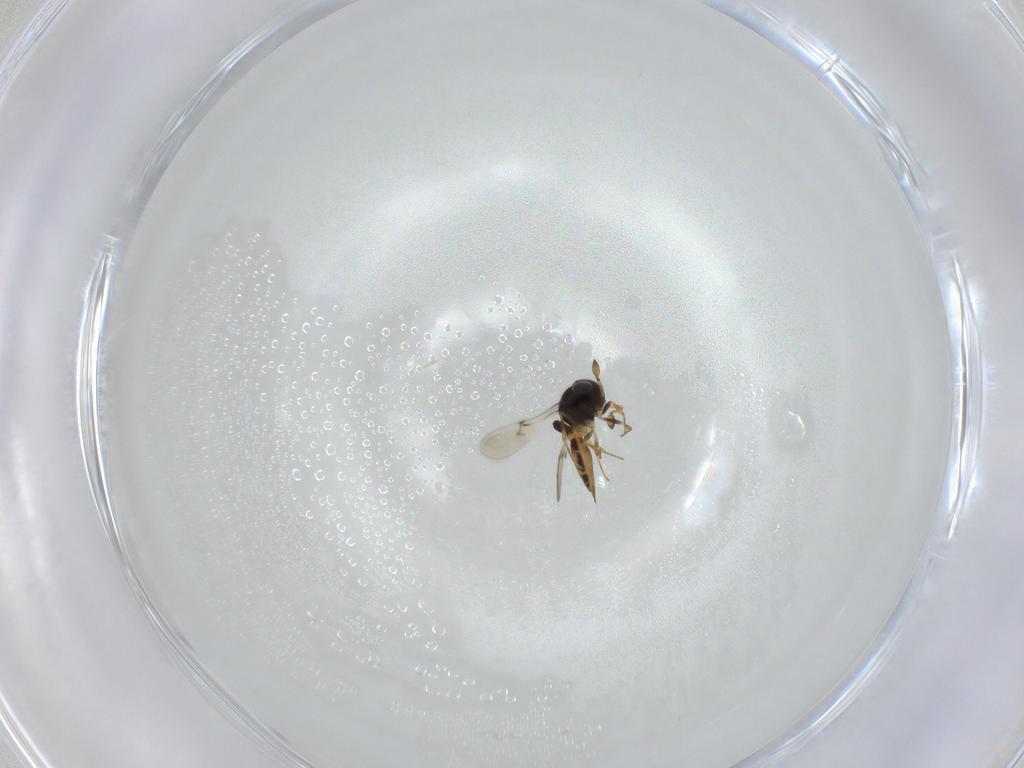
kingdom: Animalia
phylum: Arthropoda
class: Insecta
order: Hymenoptera
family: Scelionidae
